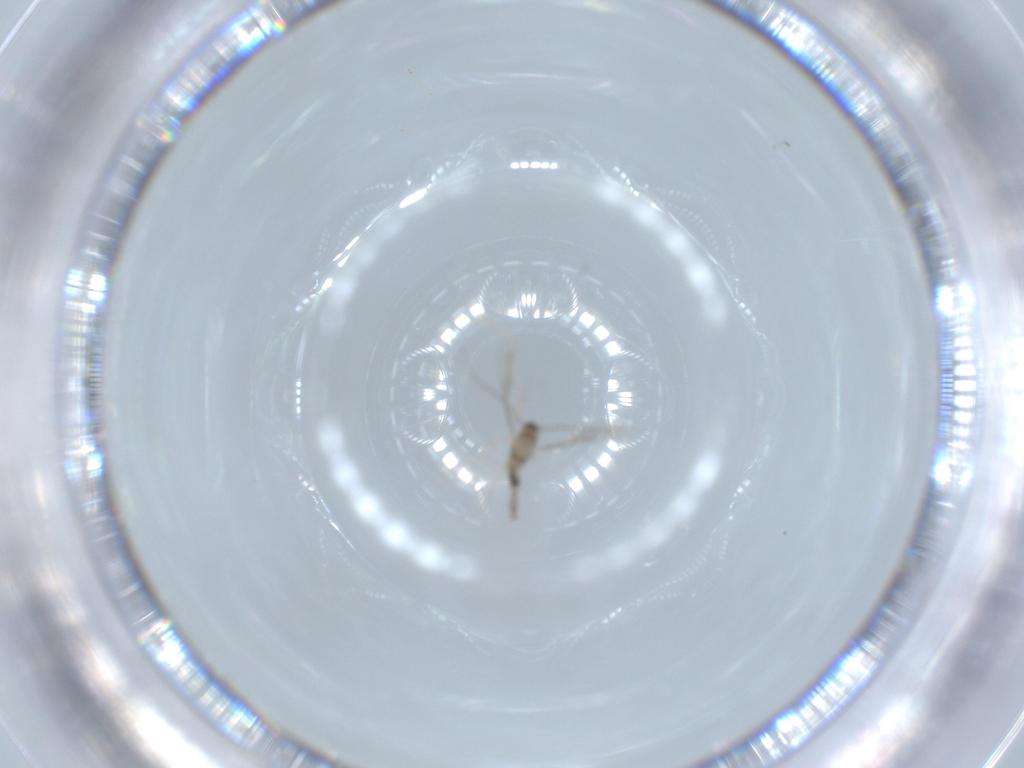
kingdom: Animalia
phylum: Arthropoda
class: Insecta
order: Diptera
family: Cecidomyiidae
